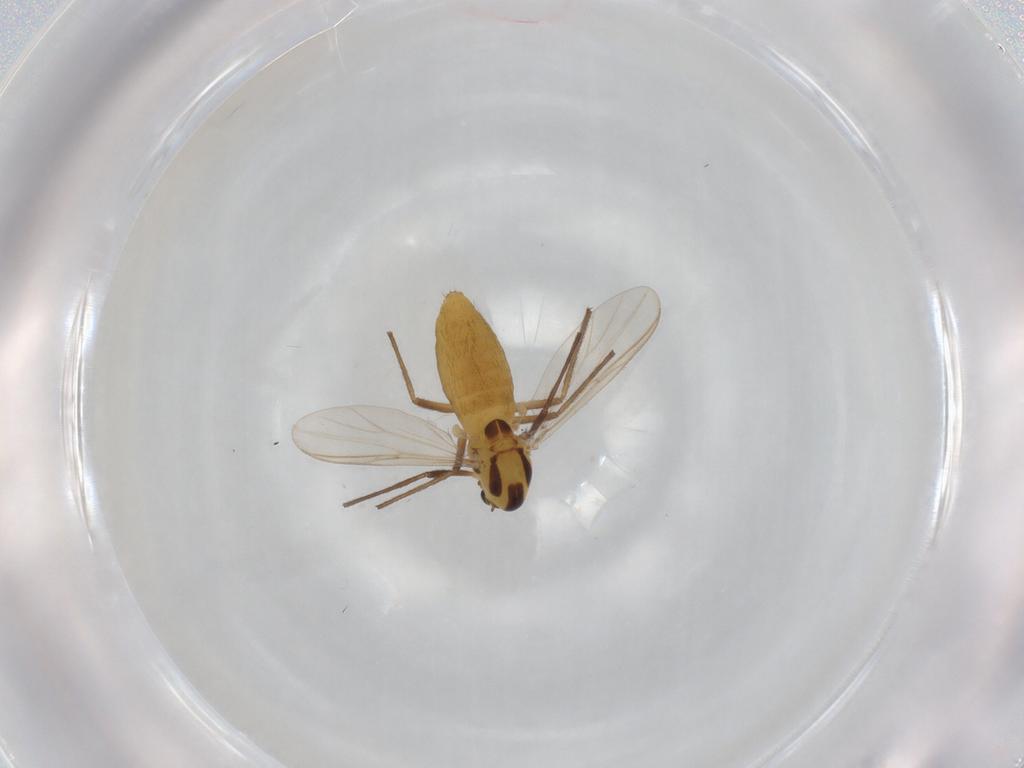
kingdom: Animalia
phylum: Arthropoda
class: Insecta
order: Diptera
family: Chironomidae
